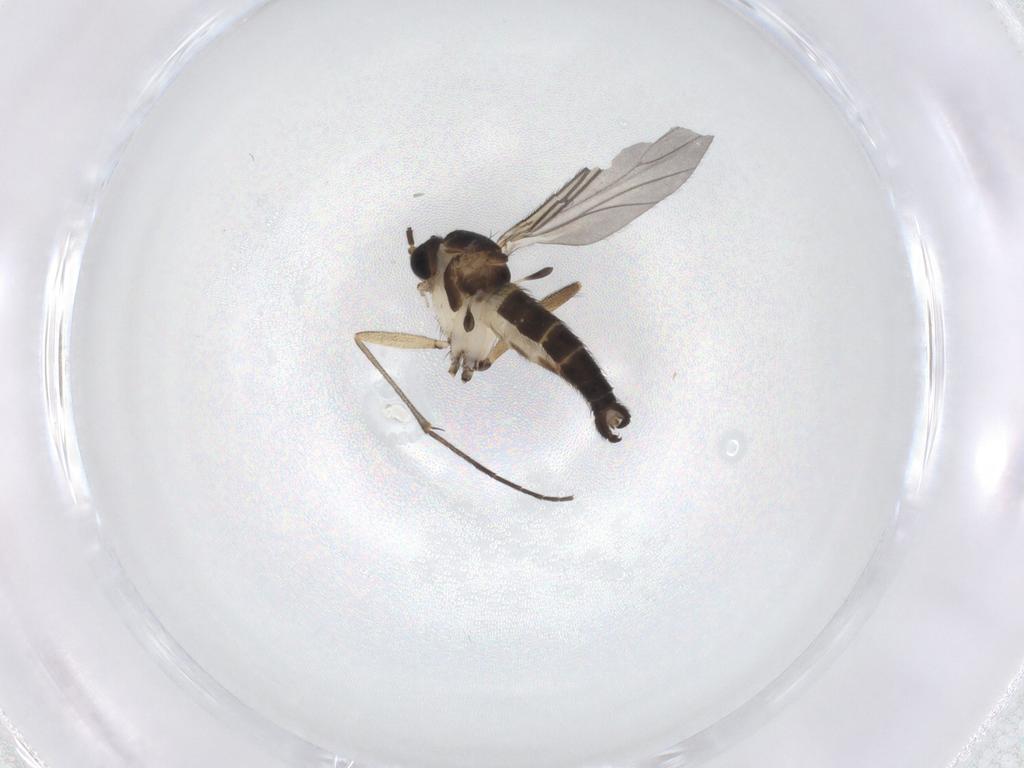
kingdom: Animalia
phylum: Arthropoda
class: Insecta
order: Diptera
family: Sciaridae
